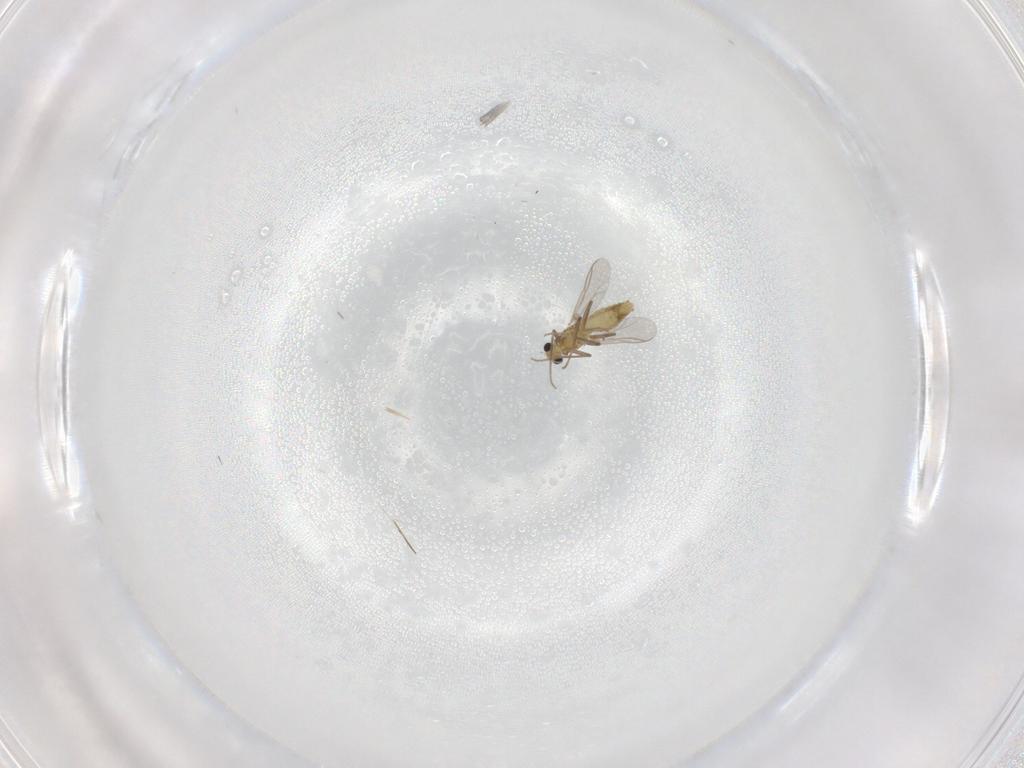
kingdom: Animalia
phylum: Arthropoda
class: Insecta
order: Diptera
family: Chironomidae
